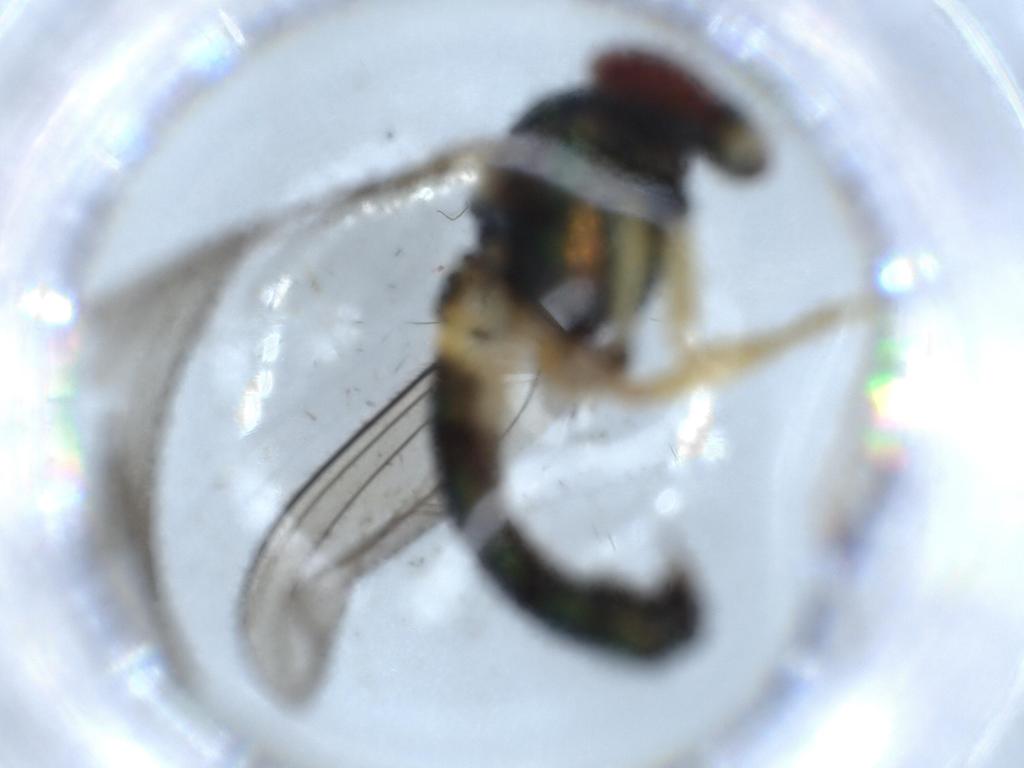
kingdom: Animalia
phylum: Arthropoda
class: Insecta
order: Diptera
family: Cecidomyiidae
